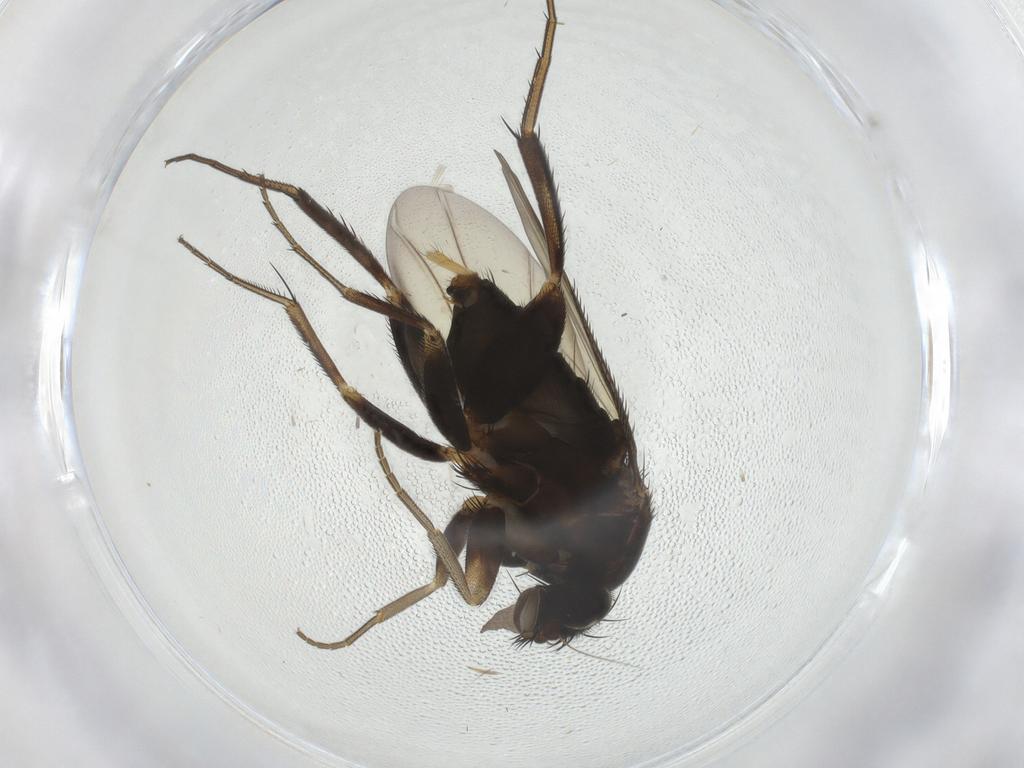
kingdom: Animalia
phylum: Arthropoda
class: Insecta
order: Diptera
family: Phoridae
